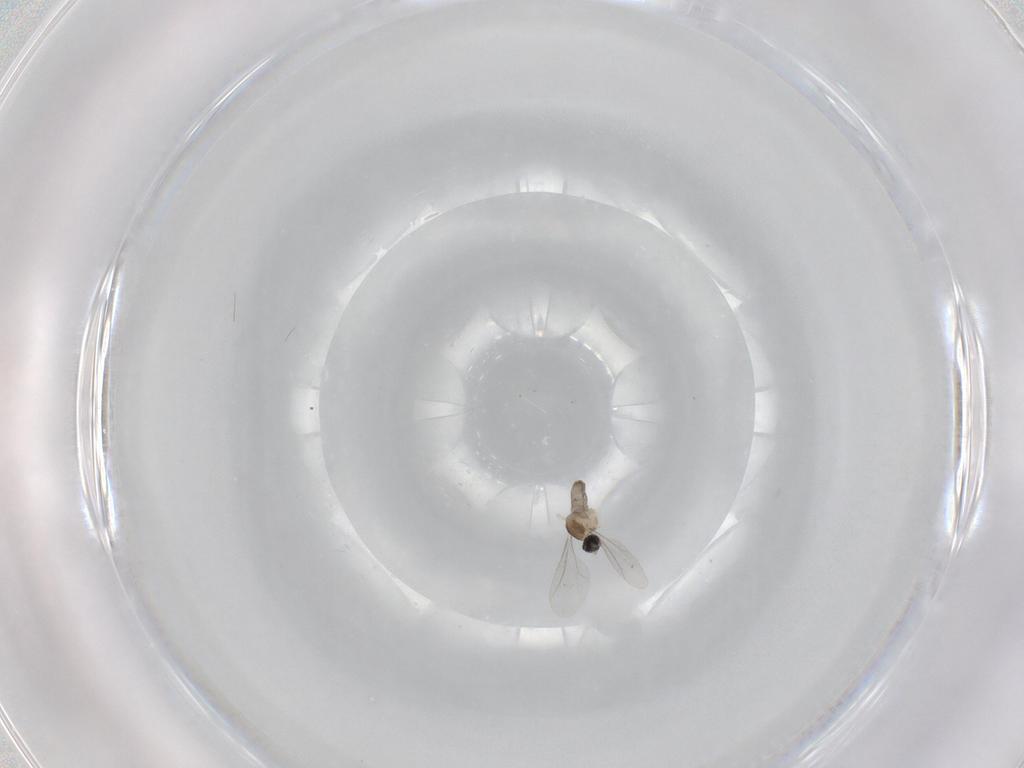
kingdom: Animalia
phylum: Arthropoda
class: Insecta
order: Diptera
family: Cecidomyiidae
